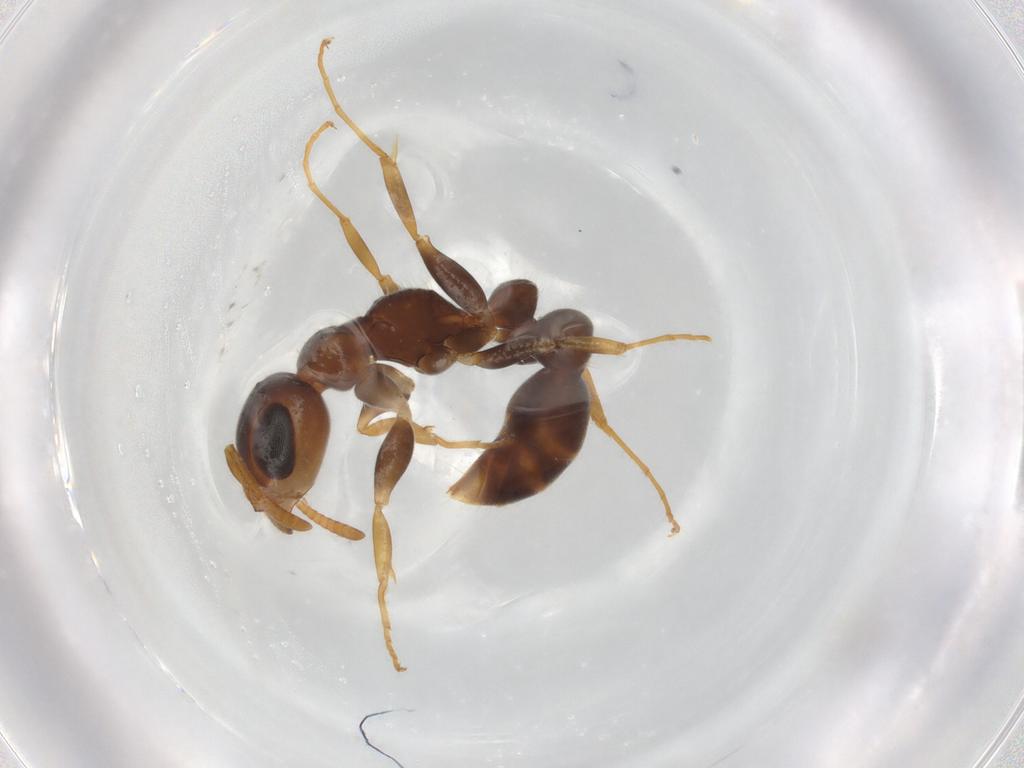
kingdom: Animalia
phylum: Arthropoda
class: Insecta
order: Hymenoptera
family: Formicidae
